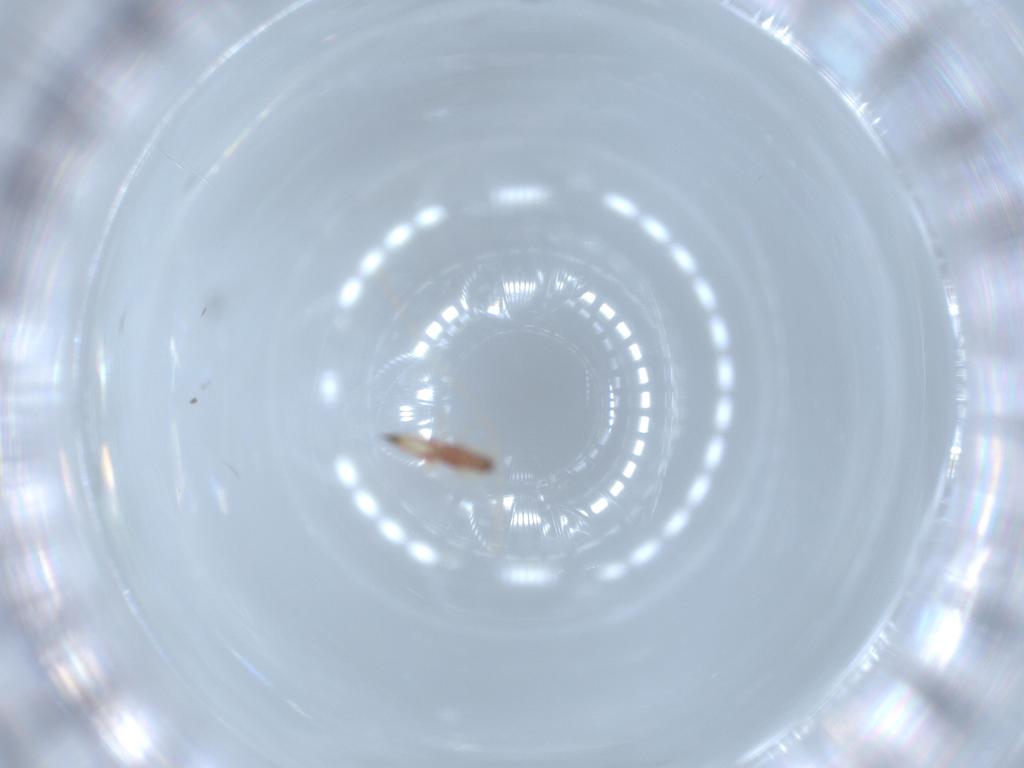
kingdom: Animalia
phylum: Arthropoda
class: Insecta
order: Thysanoptera
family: Phlaeothripidae
